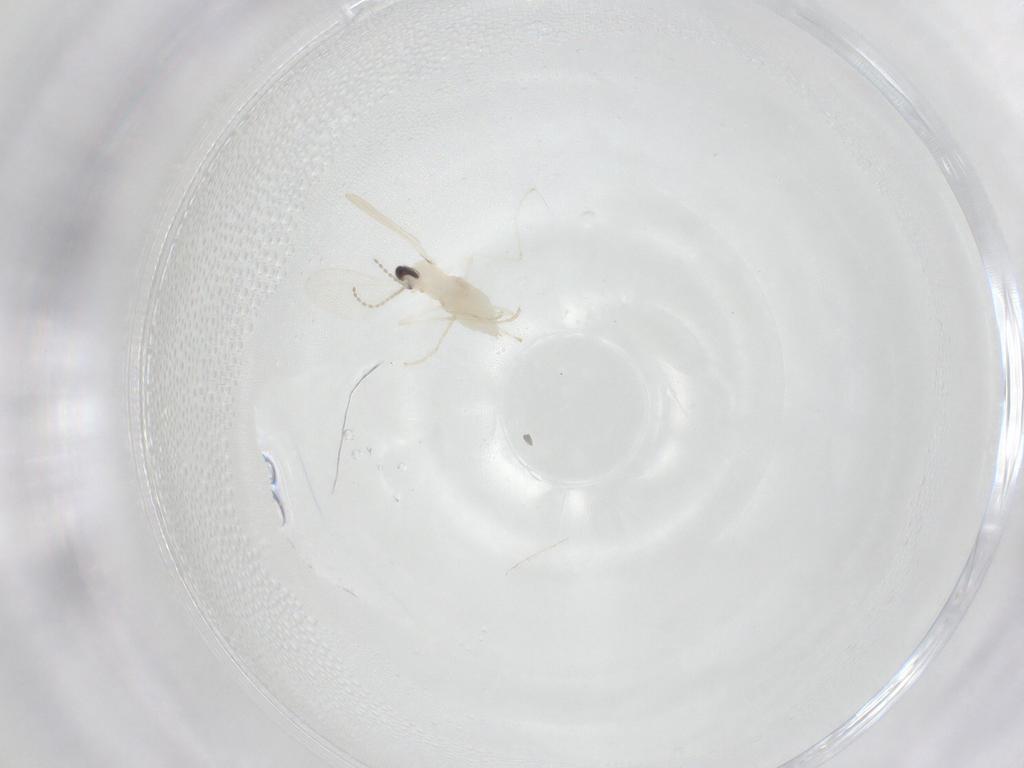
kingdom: Animalia
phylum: Arthropoda
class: Insecta
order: Diptera
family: Cecidomyiidae
